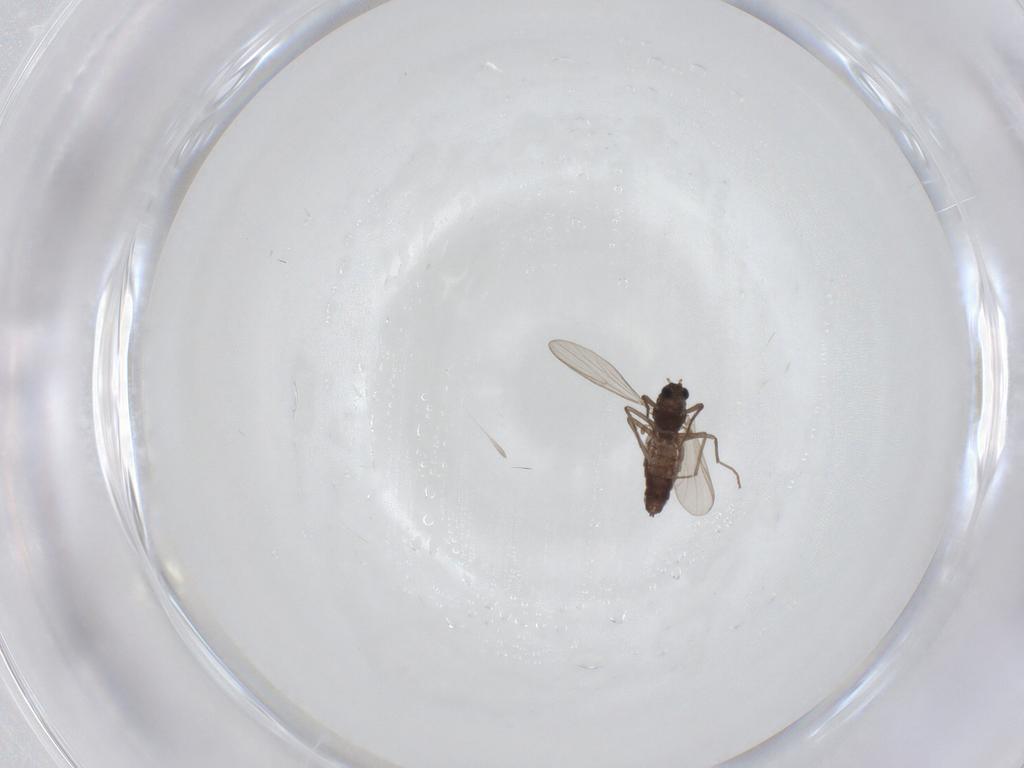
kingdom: Animalia
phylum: Arthropoda
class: Insecta
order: Diptera
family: Chironomidae
